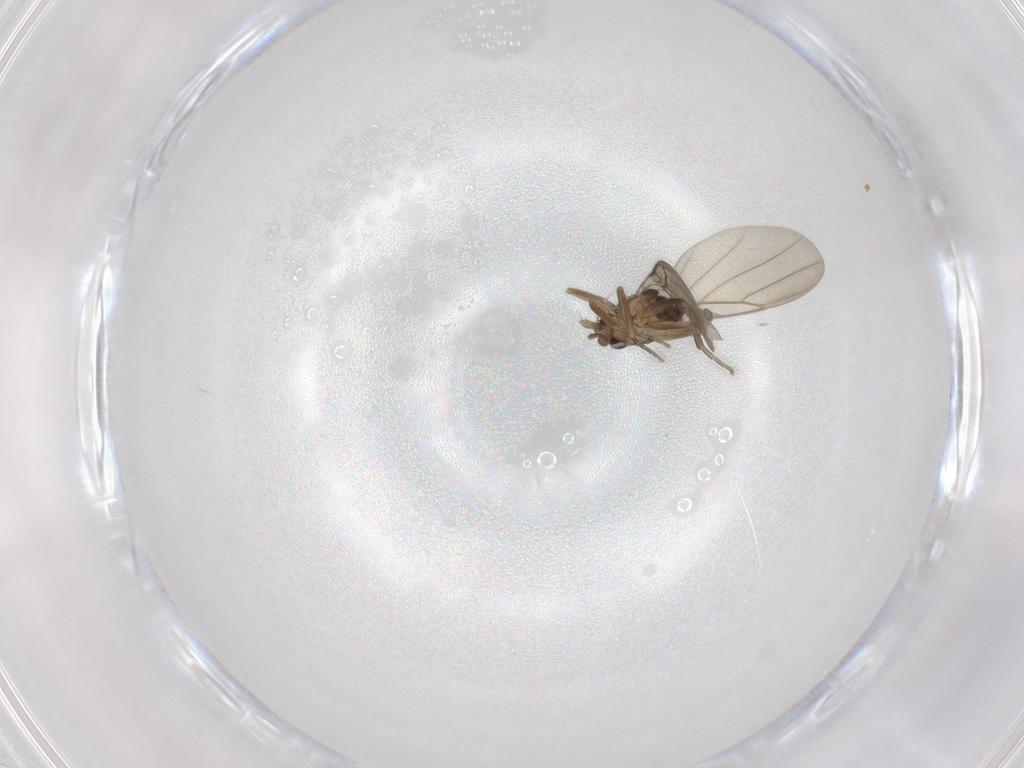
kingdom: Animalia
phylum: Arthropoda
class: Insecta
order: Diptera
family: Phoridae
